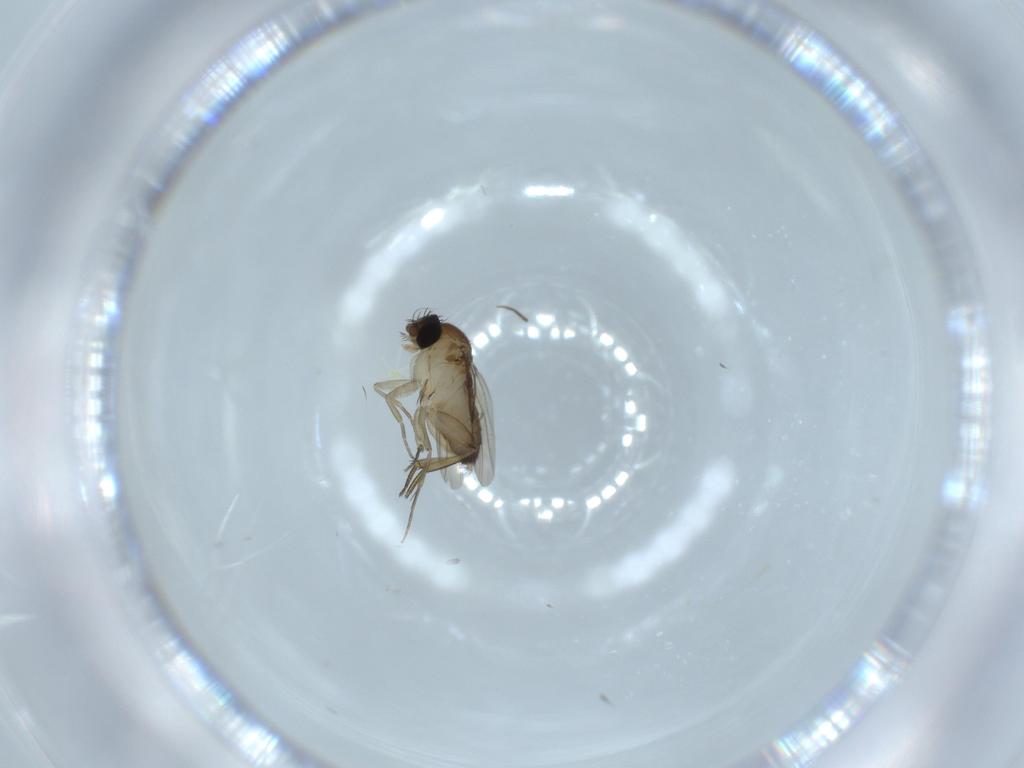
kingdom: Animalia
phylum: Arthropoda
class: Insecta
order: Diptera
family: Phoridae
